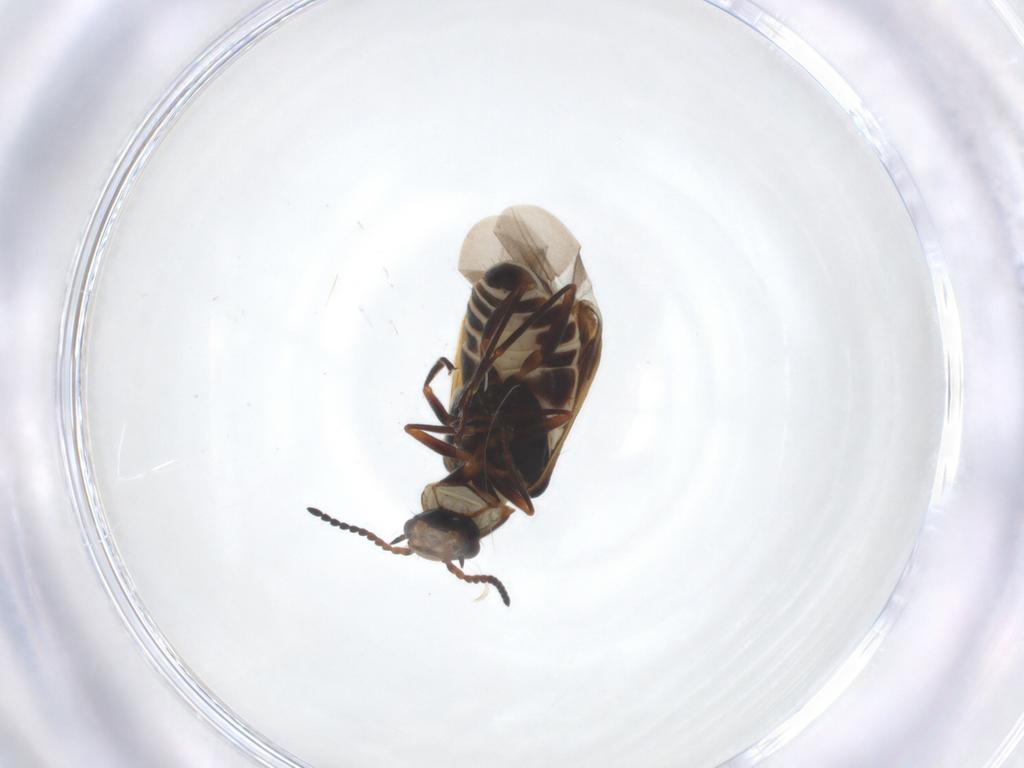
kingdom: Animalia
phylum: Arthropoda
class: Insecta
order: Coleoptera
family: Melyridae
